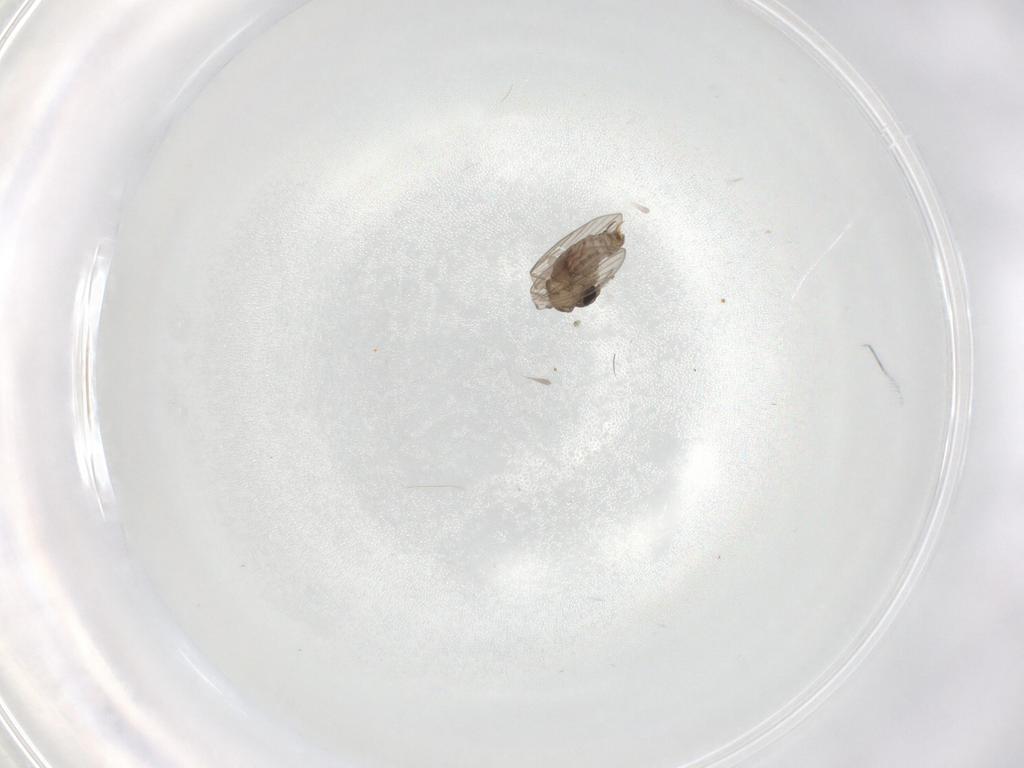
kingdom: Animalia
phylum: Arthropoda
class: Insecta
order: Diptera
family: Psychodidae
